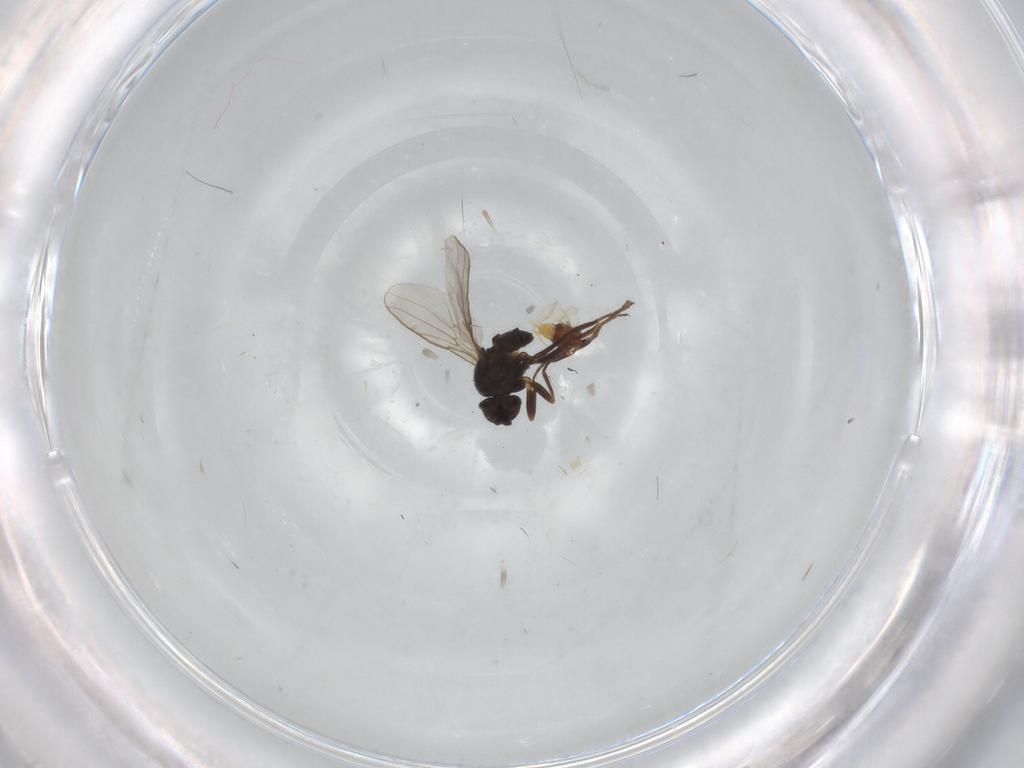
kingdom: Animalia
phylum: Arthropoda
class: Insecta
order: Diptera
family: Chloropidae
